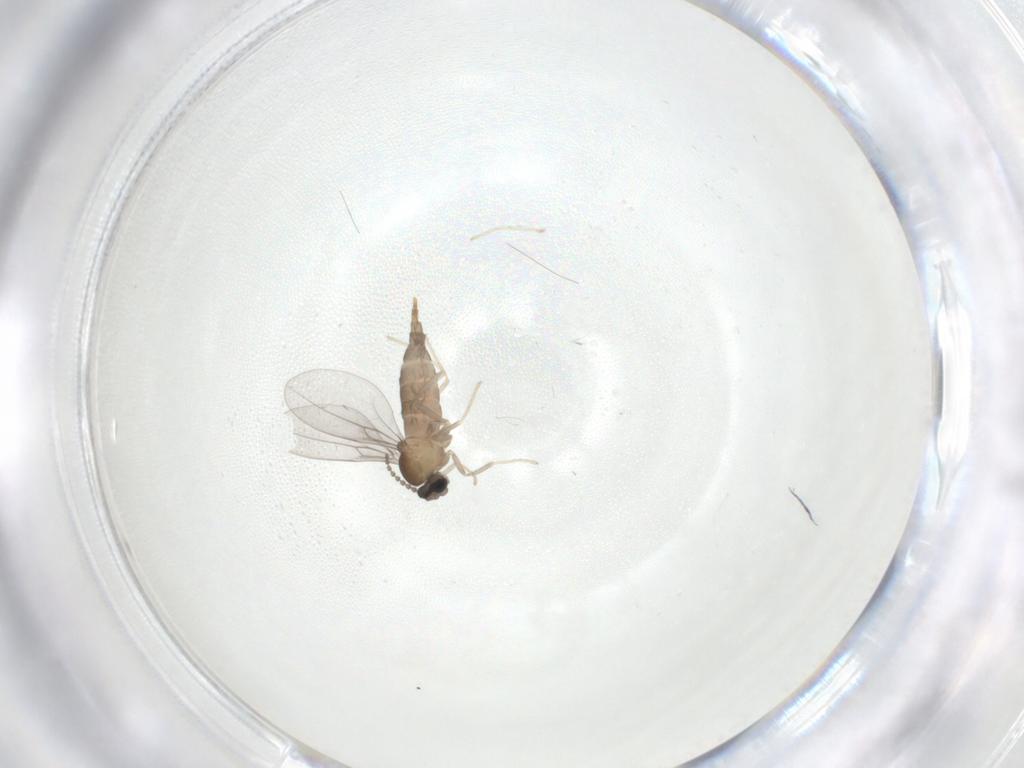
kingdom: Animalia
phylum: Arthropoda
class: Insecta
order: Diptera
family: Cecidomyiidae
